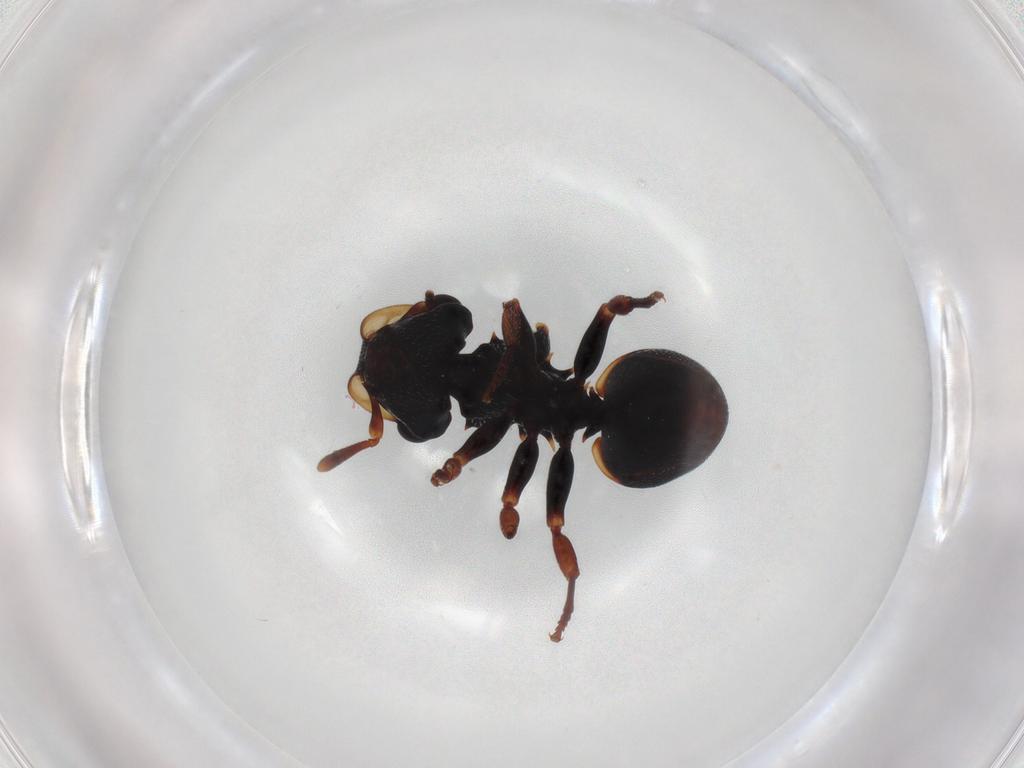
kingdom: Animalia
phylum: Arthropoda
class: Insecta
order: Hymenoptera
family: Formicidae
